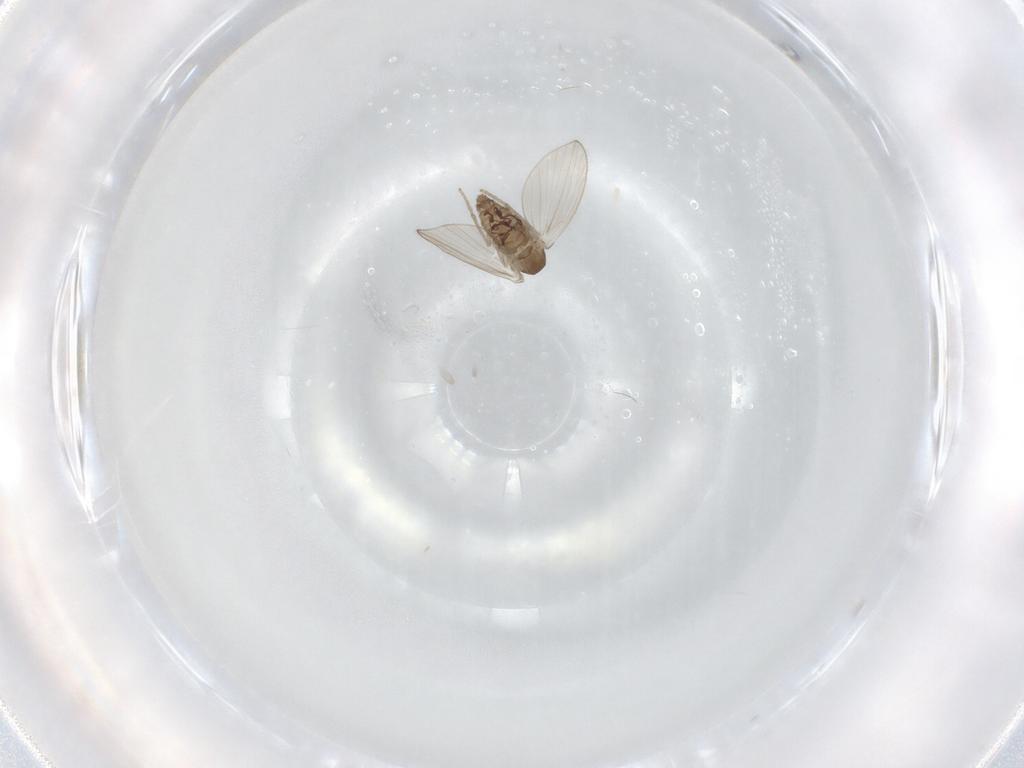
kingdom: Animalia
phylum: Arthropoda
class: Insecta
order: Diptera
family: Psychodidae
